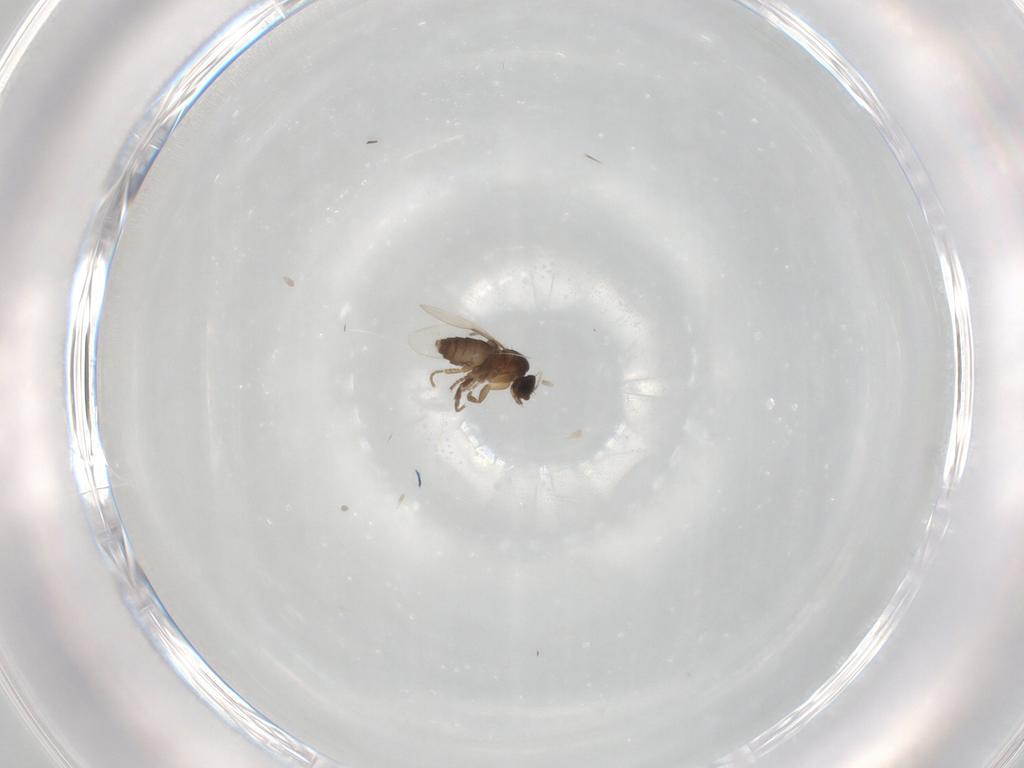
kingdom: Animalia
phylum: Arthropoda
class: Insecta
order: Diptera
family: Phoridae
